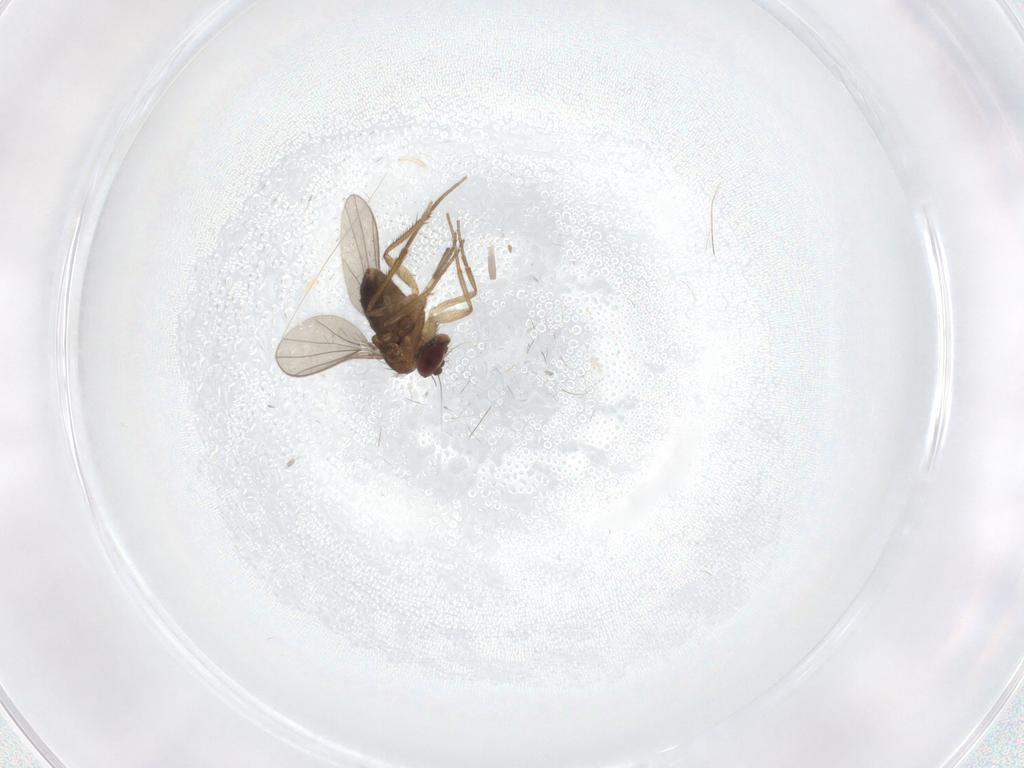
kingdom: Animalia
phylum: Arthropoda
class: Insecta
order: Diptera
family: Dolichopodidae
